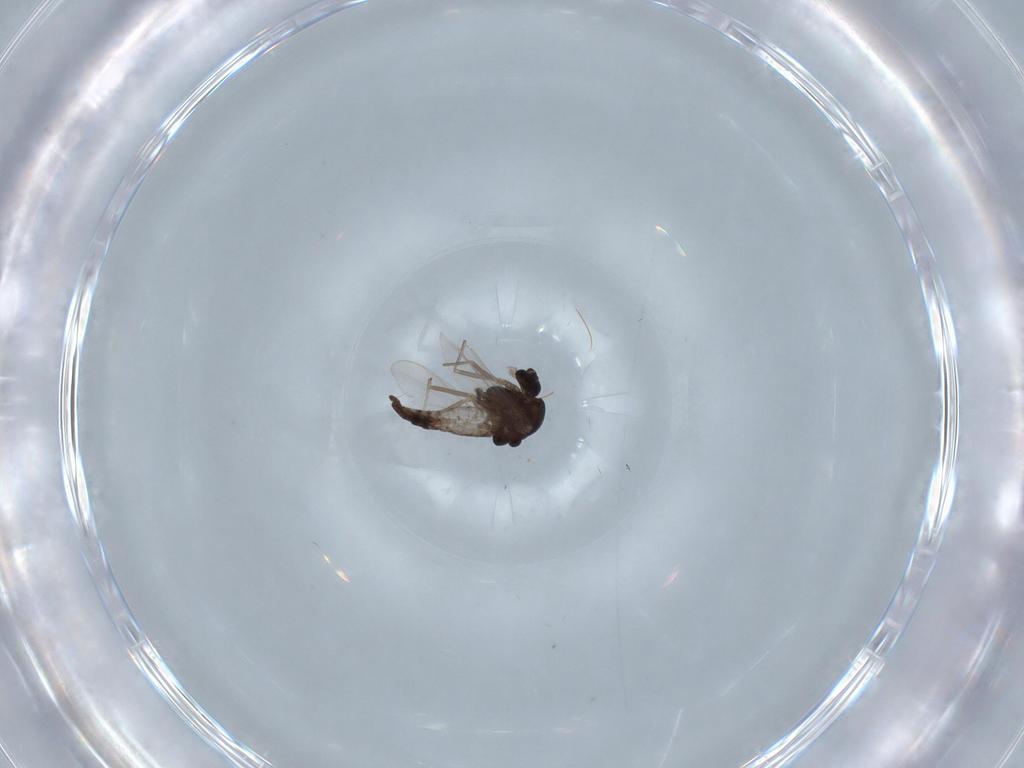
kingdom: Animalia
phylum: Arthropoda
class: Insecta
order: Diptera
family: Chironomidae
